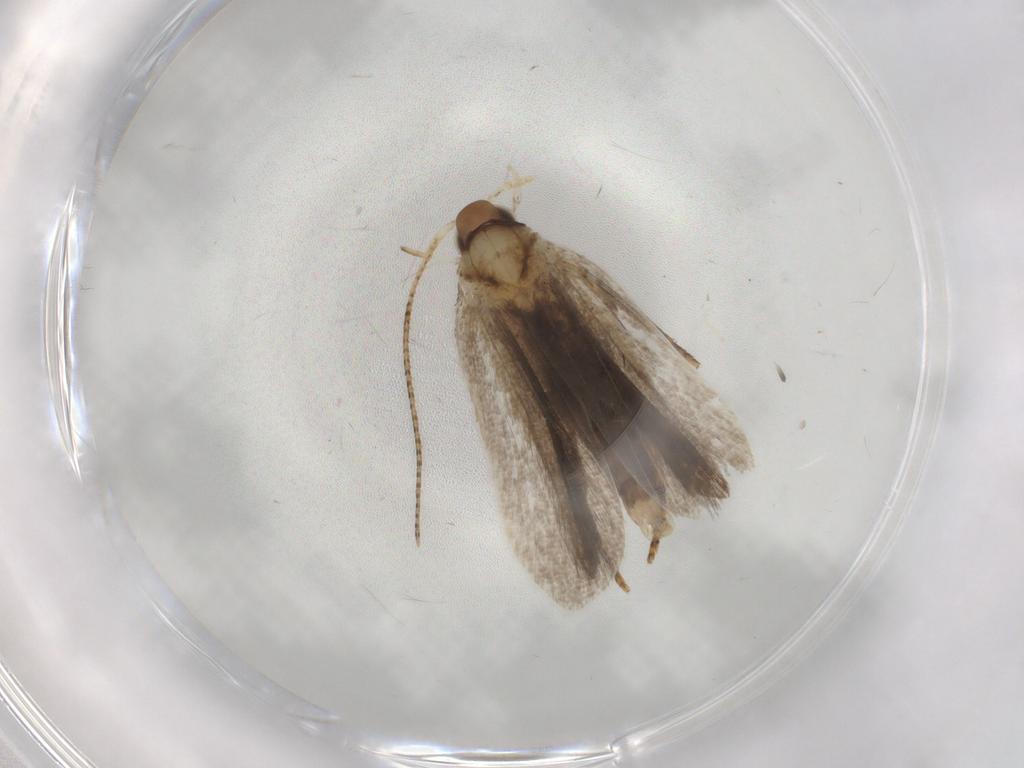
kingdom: Animalia
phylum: Arthropoda
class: Insecta
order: Lepidoptera
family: Gelechiidae
